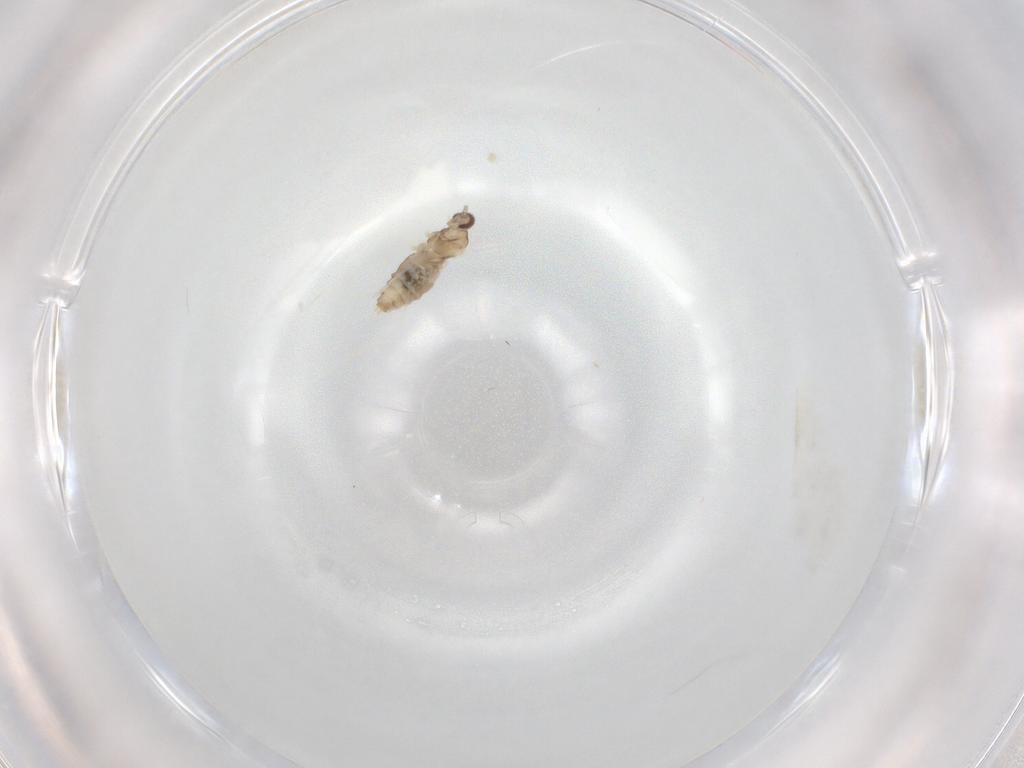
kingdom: Animalia
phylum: Arthropoda
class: Insecta
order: Diptera
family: Cecidomyiidae
